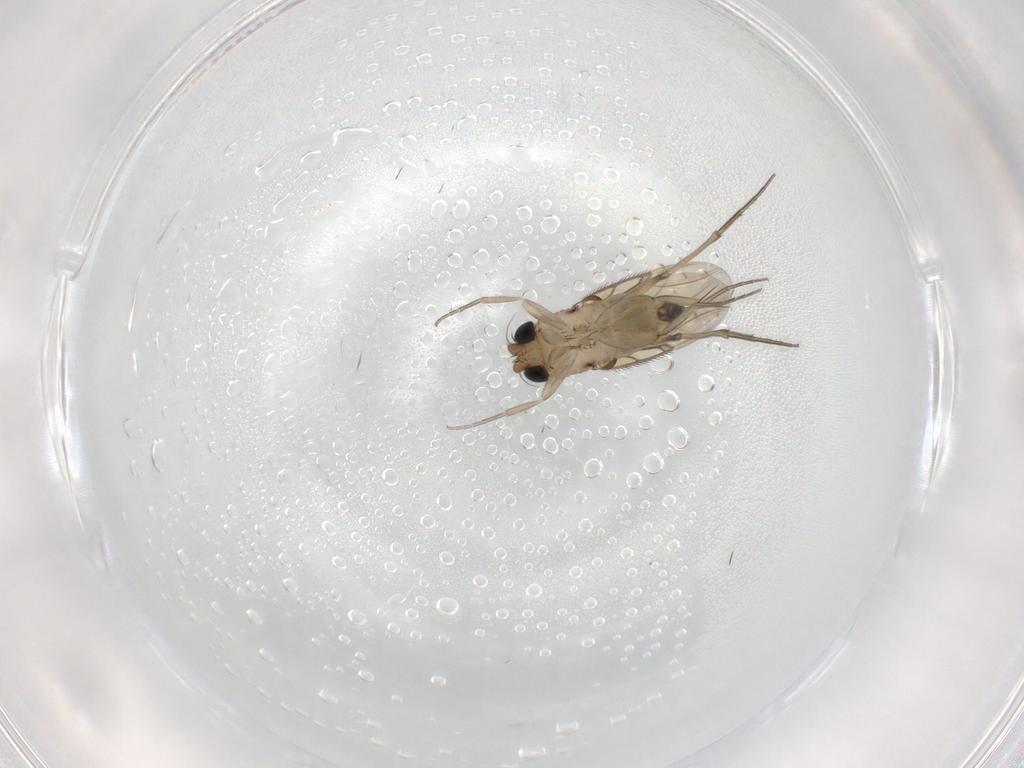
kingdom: Animalia
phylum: Arthropoda
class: Insecta
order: Diptera
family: Phoridae
